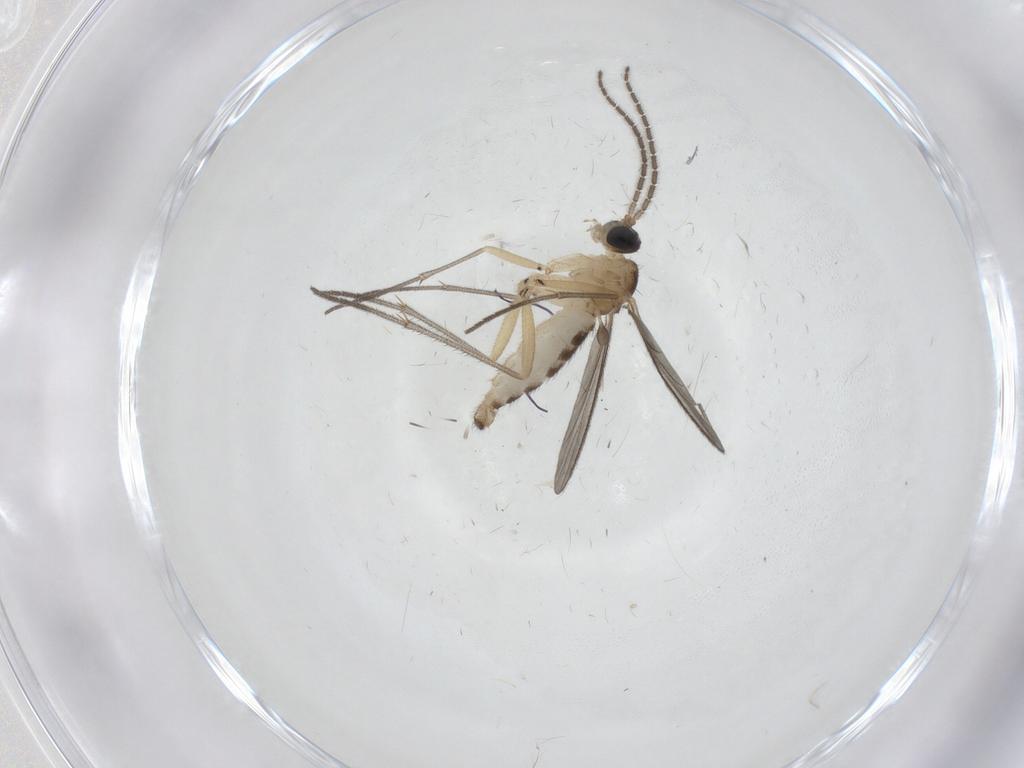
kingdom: Animalia
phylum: Arthropoda
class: Insecta
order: Diptera
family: Sciaridae
